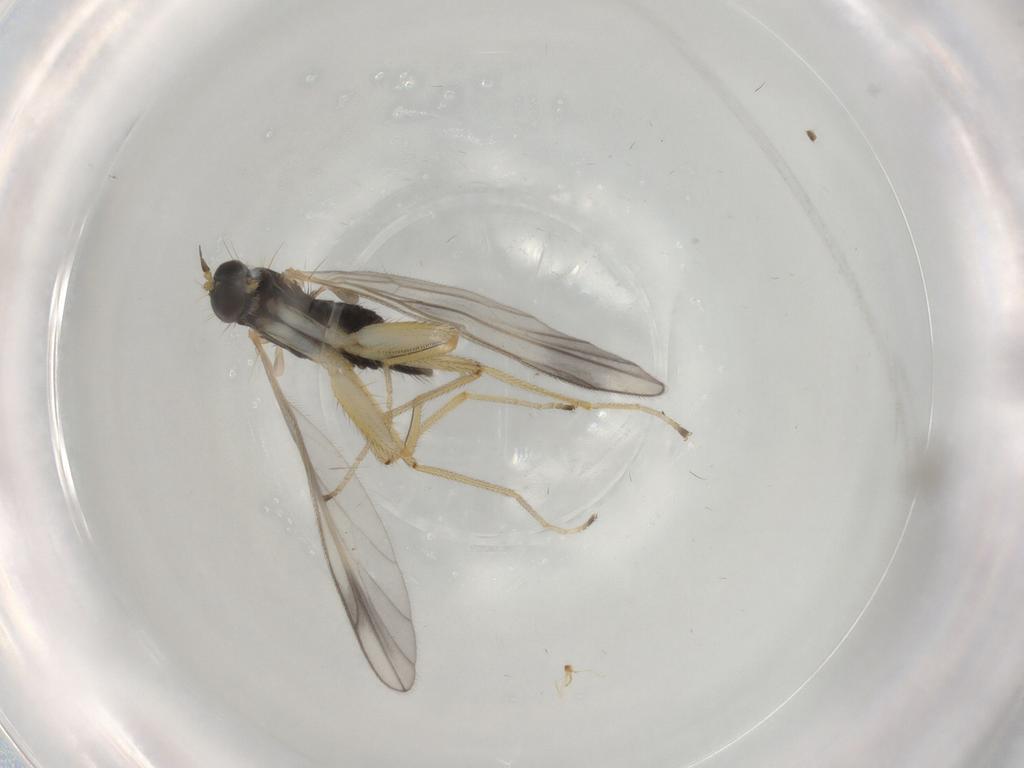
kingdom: Animalia
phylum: Arthropoda
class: Insecta
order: Diptera
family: Empididae
